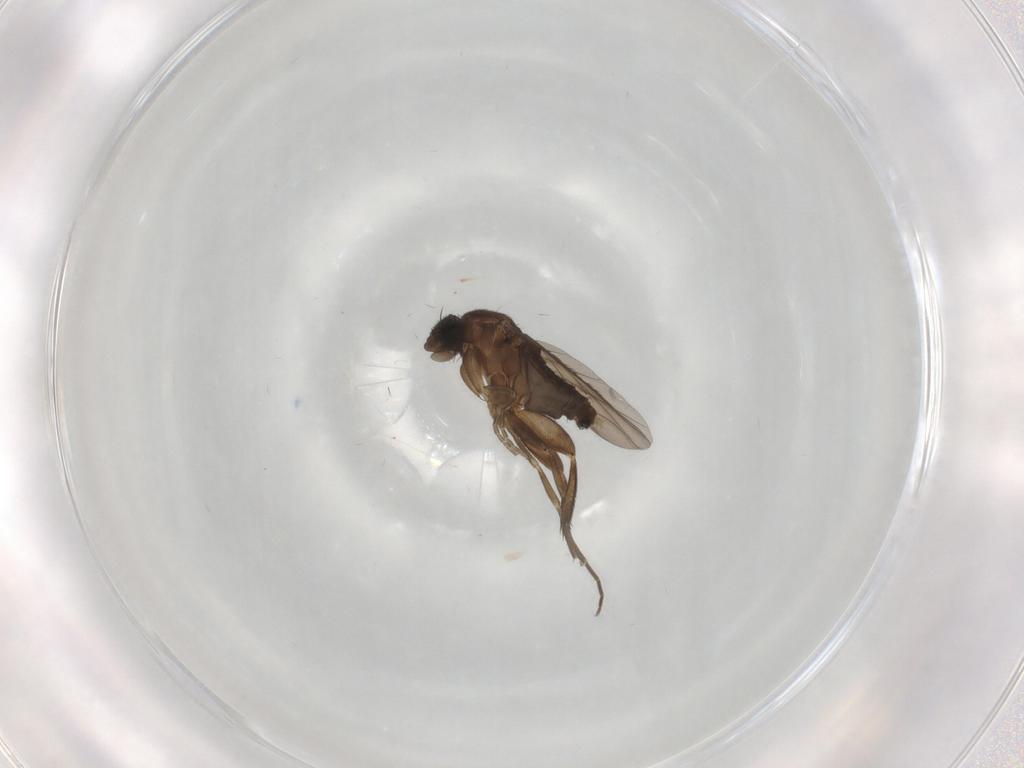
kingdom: Animalia
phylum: Arthropoda
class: Insecta
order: Diptera
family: Phoridae
